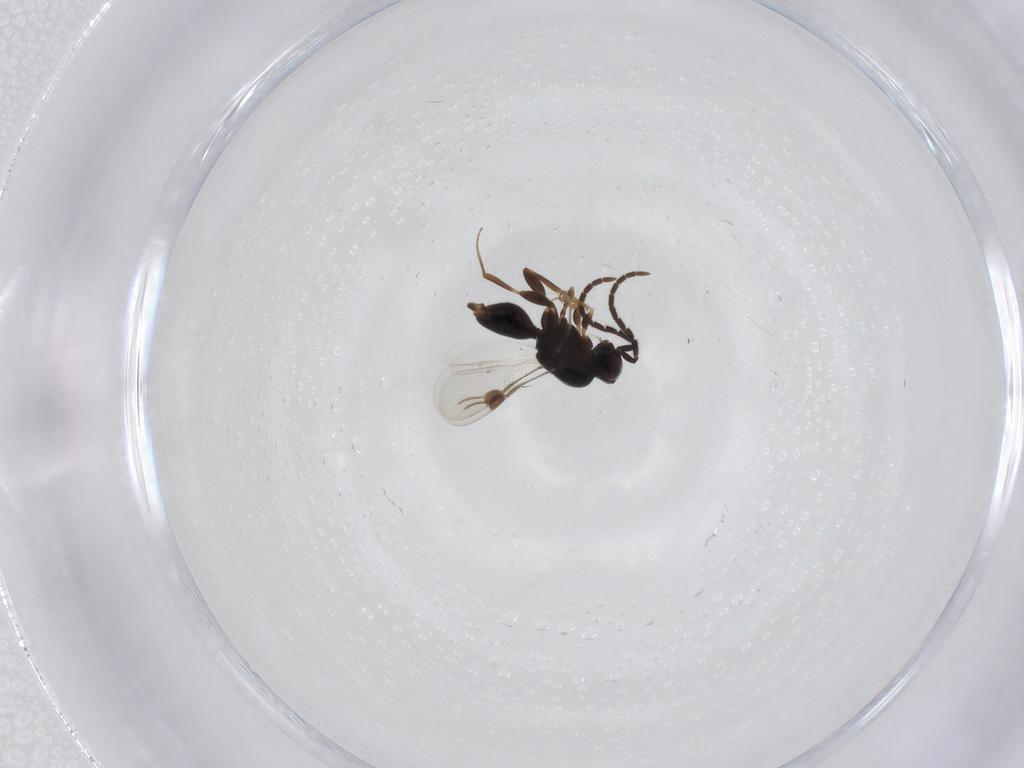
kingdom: Animalia
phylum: Arthropoda
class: Insecta
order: Hymenoptera
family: Megaspilidae
